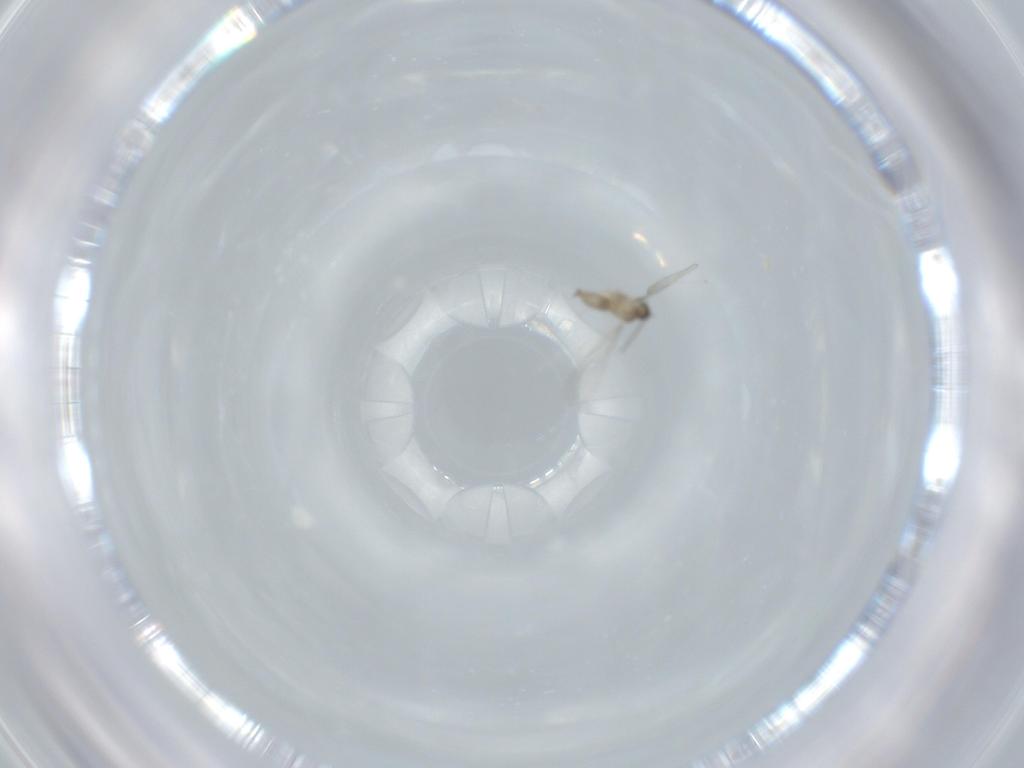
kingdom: Animalia
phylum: Arthropoda
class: Insecta
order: Diptera
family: Cecidomyiidae
